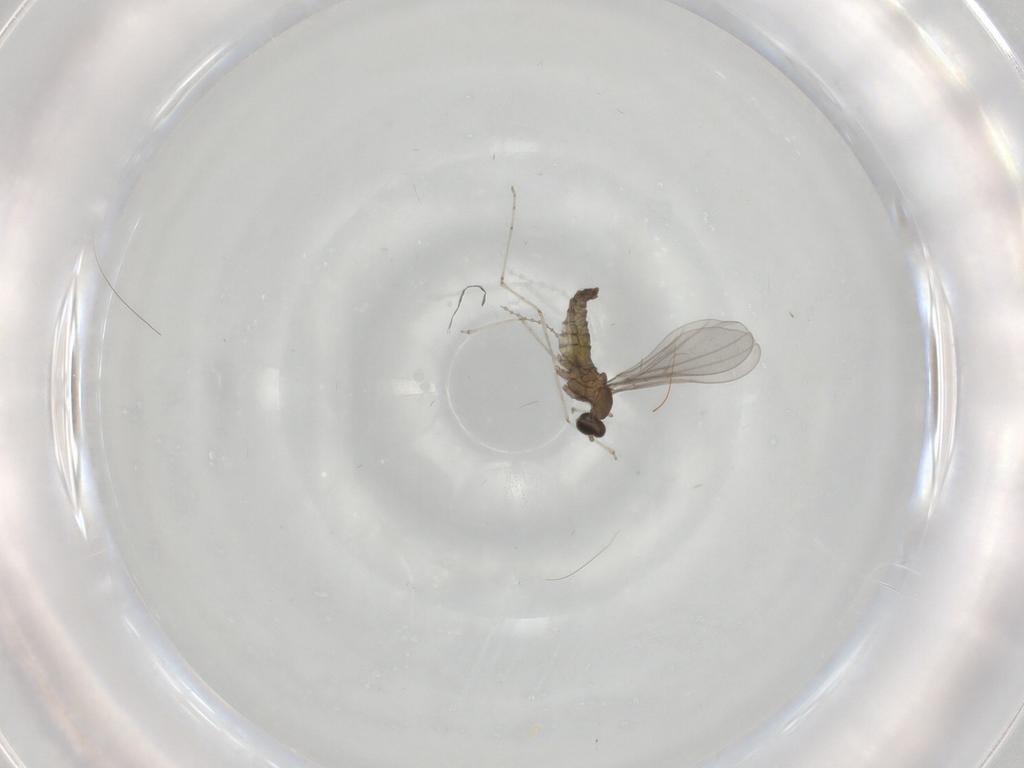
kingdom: Animalia
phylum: Arthropoda
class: Insecta
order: Diptera
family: Cecidomyiidae
